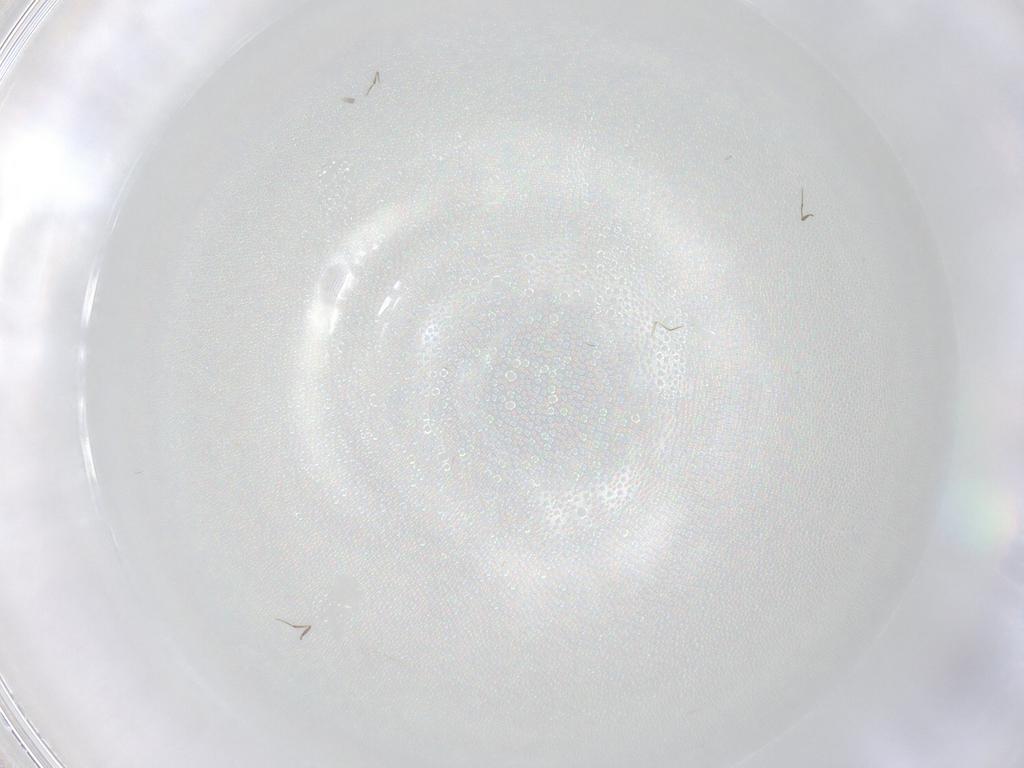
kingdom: Animalia
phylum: Arthropoda
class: Insecta
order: Hymenoptera
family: Mymaridae
